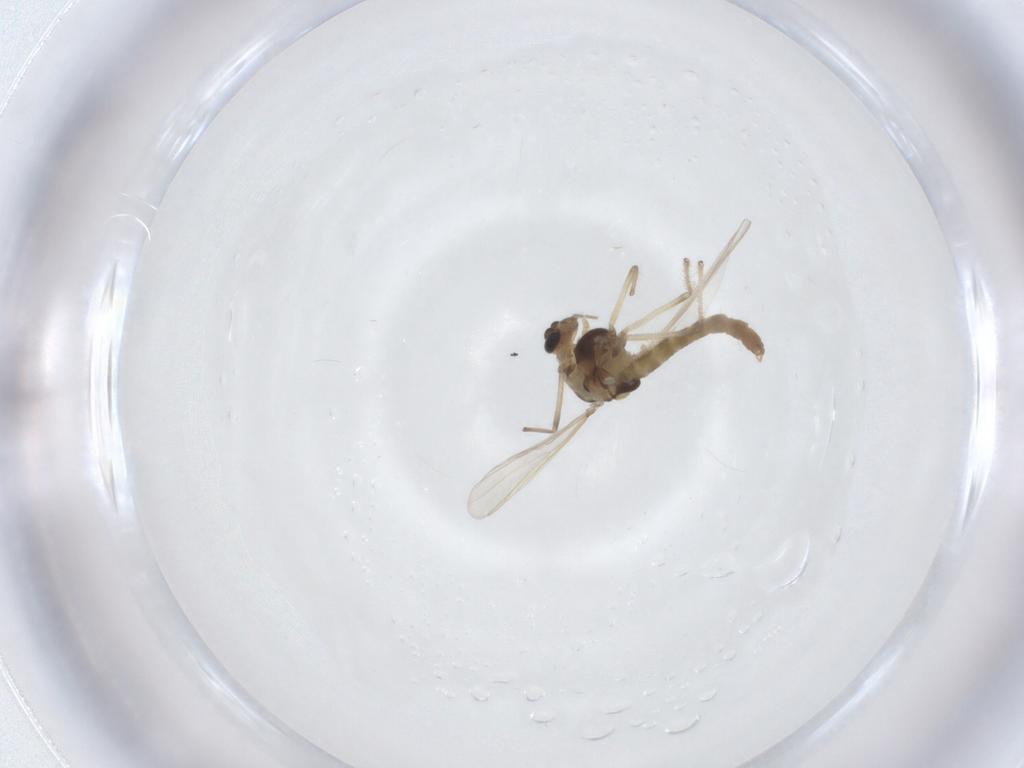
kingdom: Animalia
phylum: Arthropoda
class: Insecta
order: Diptera
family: Chironomidae
